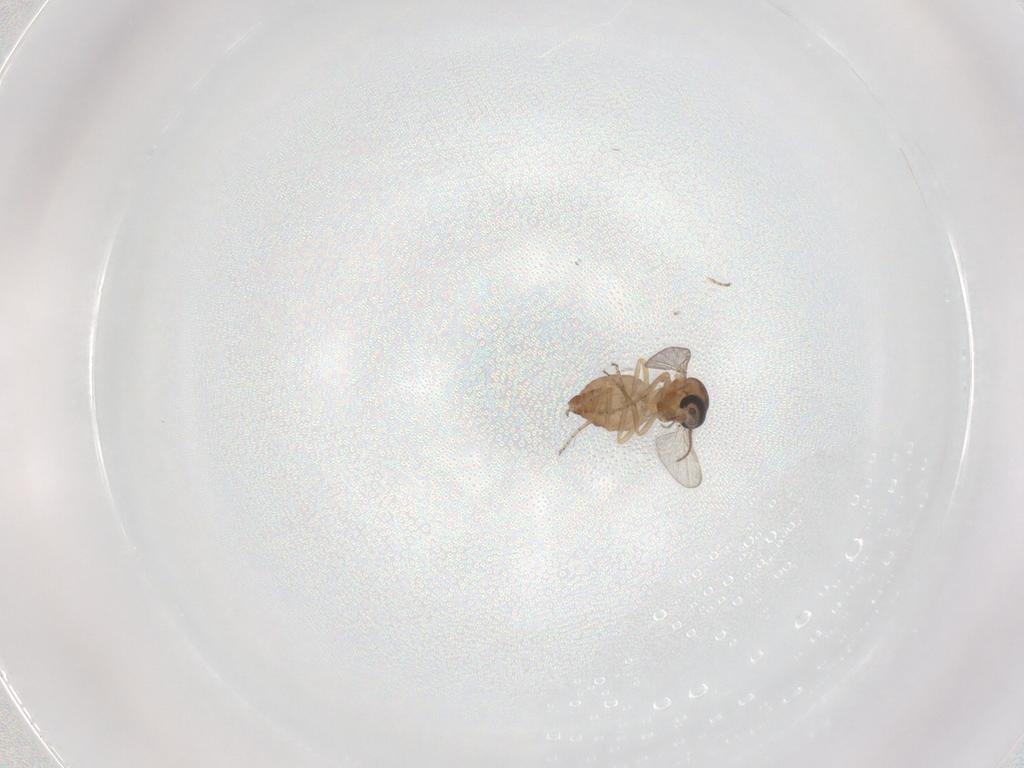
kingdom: Animalia
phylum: Arthropoda
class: Insecta
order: Diptera
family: Ceratopogonidae
